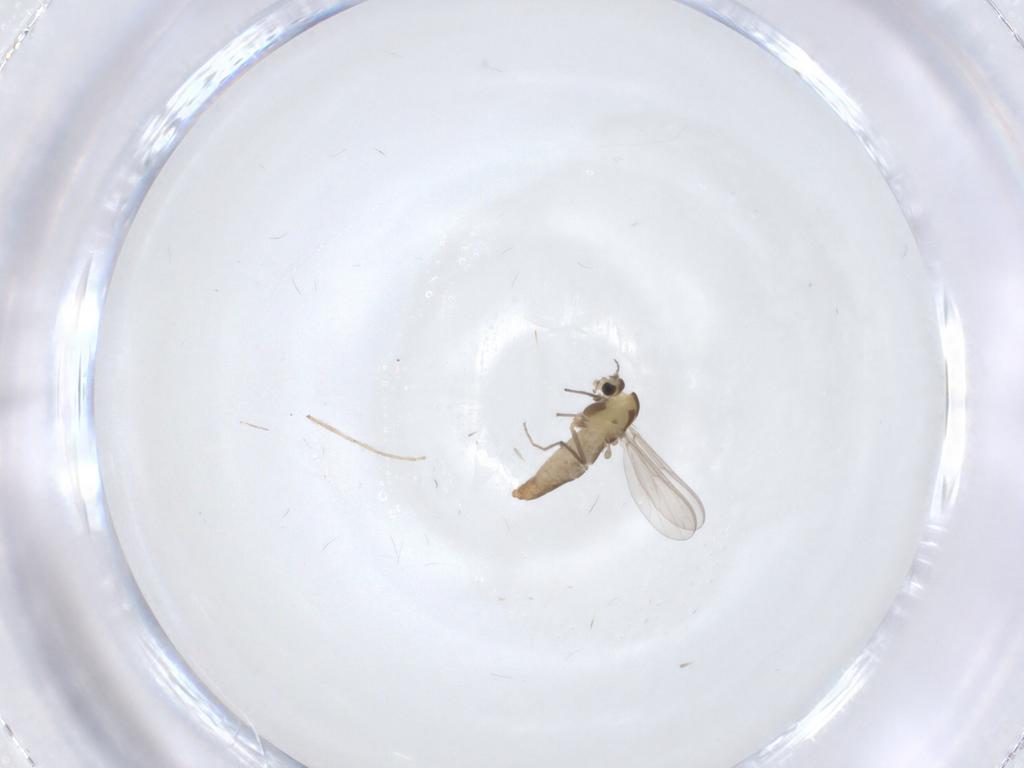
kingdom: Animalia
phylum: Arthropoda
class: Insecta
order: Diptera
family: Chironomidae
